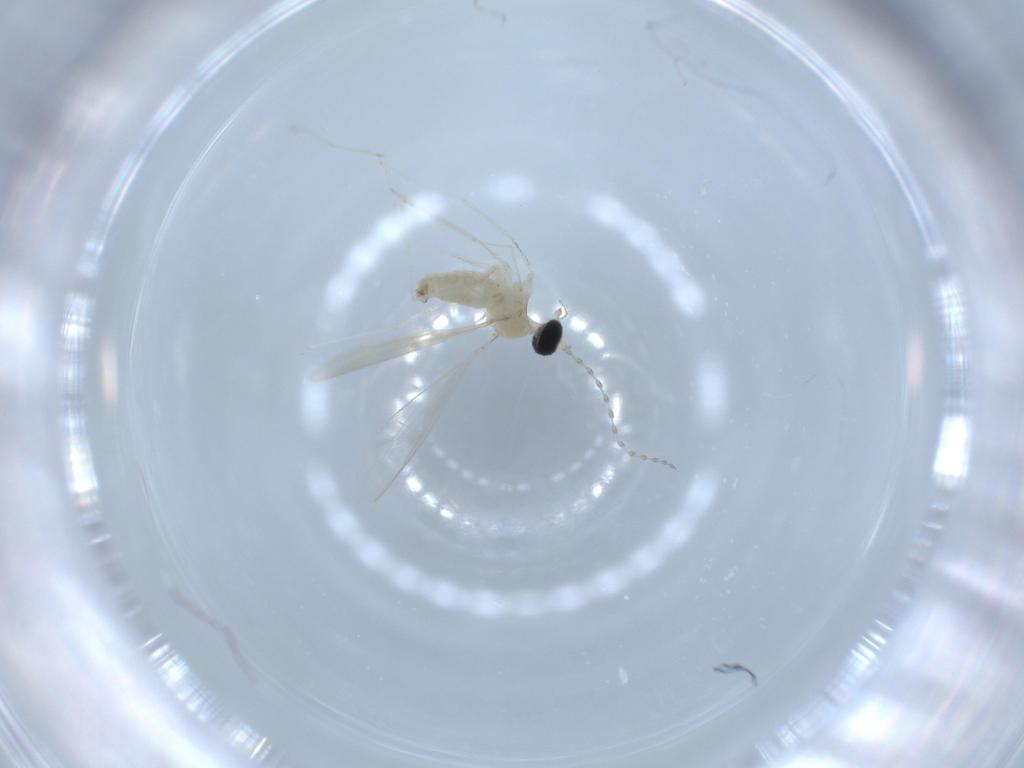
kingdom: Animalia
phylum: Arthropoda
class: Insecta
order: Diptera
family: Cecidomyiidae
